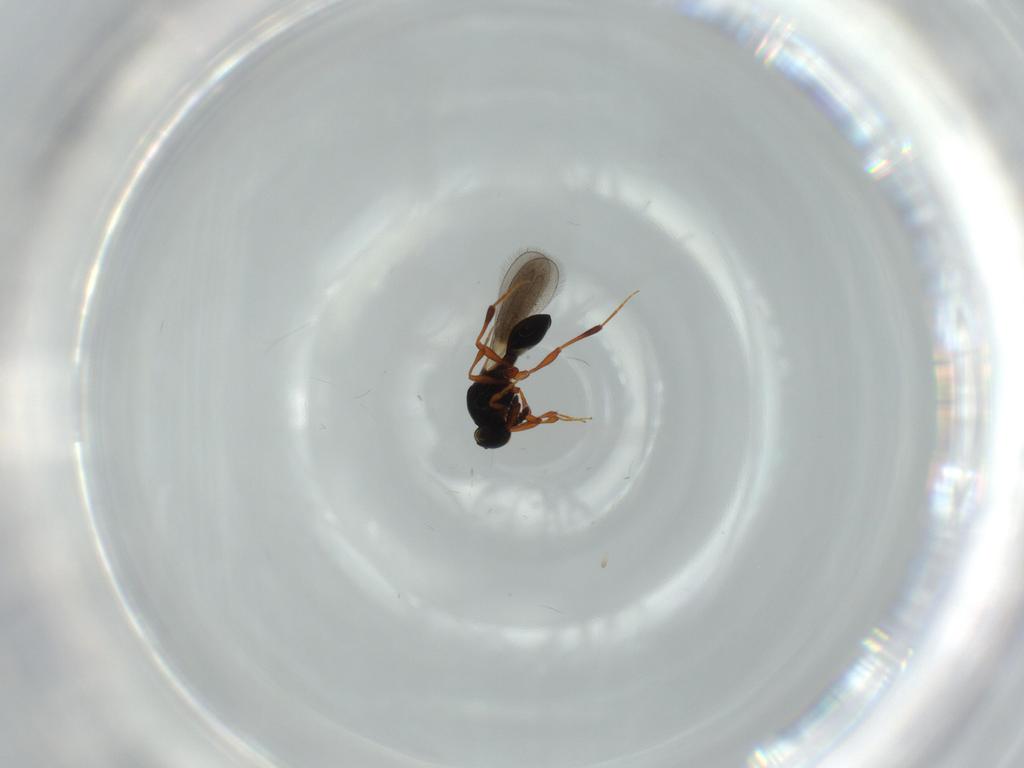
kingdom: Animalia
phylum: Arthropoda
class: Insecta
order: Hymenoptera
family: Platygastridae
